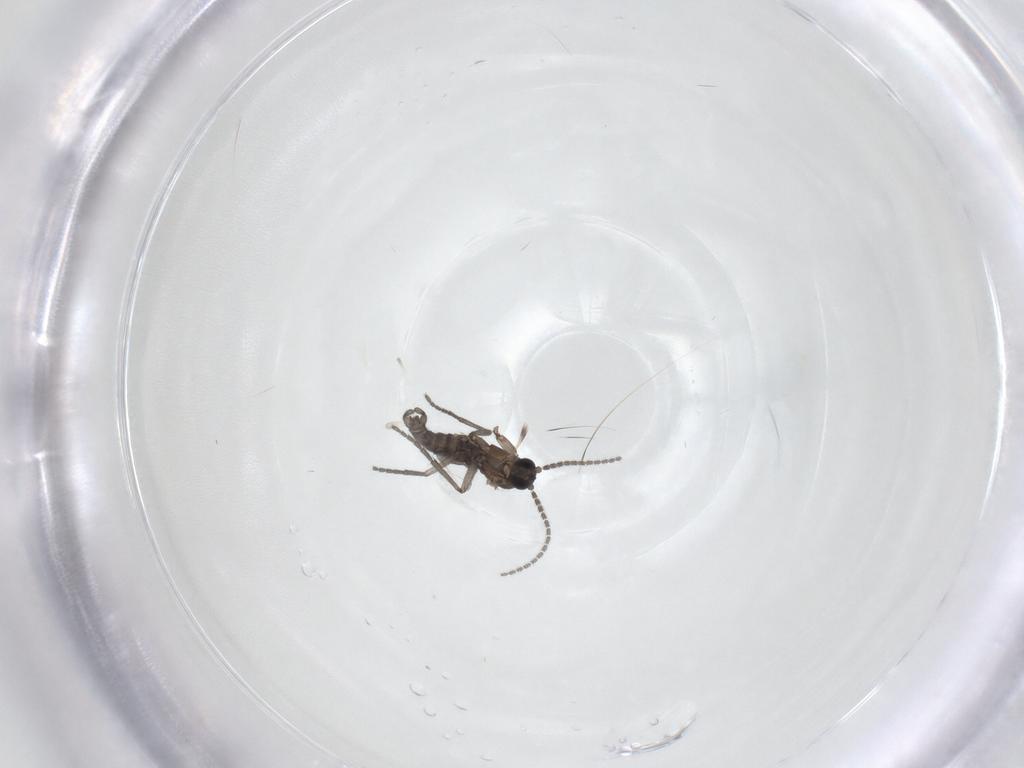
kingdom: Animalia
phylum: Arthropoda
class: Insecta
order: Diptera
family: Sciaridae
